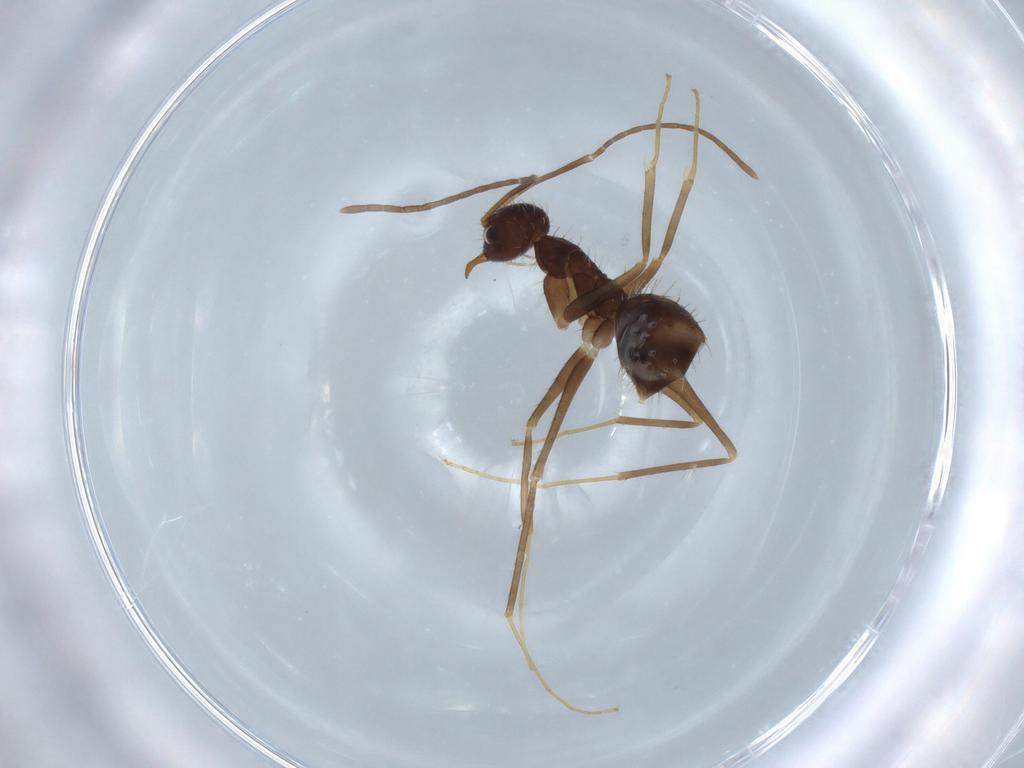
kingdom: Animalia
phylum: Arthropoda
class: Insecta
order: Hymenoptera
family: Formicidae
